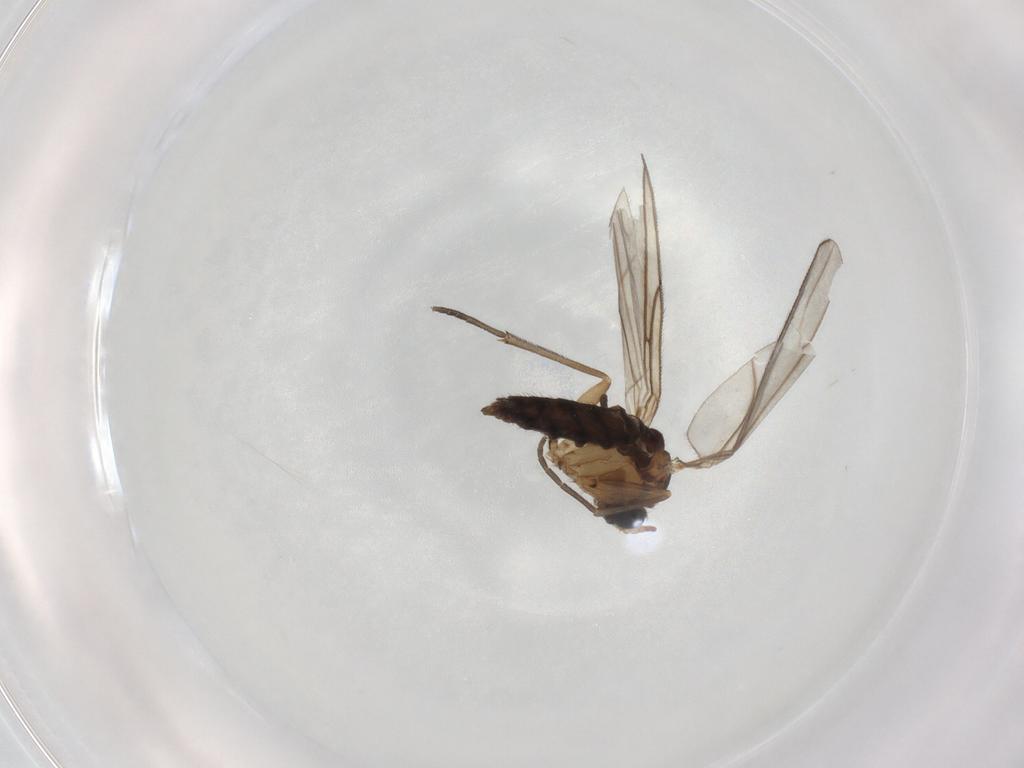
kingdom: Animalia
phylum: Arthropoda
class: Insecta
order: Diptera
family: Sciaridae
